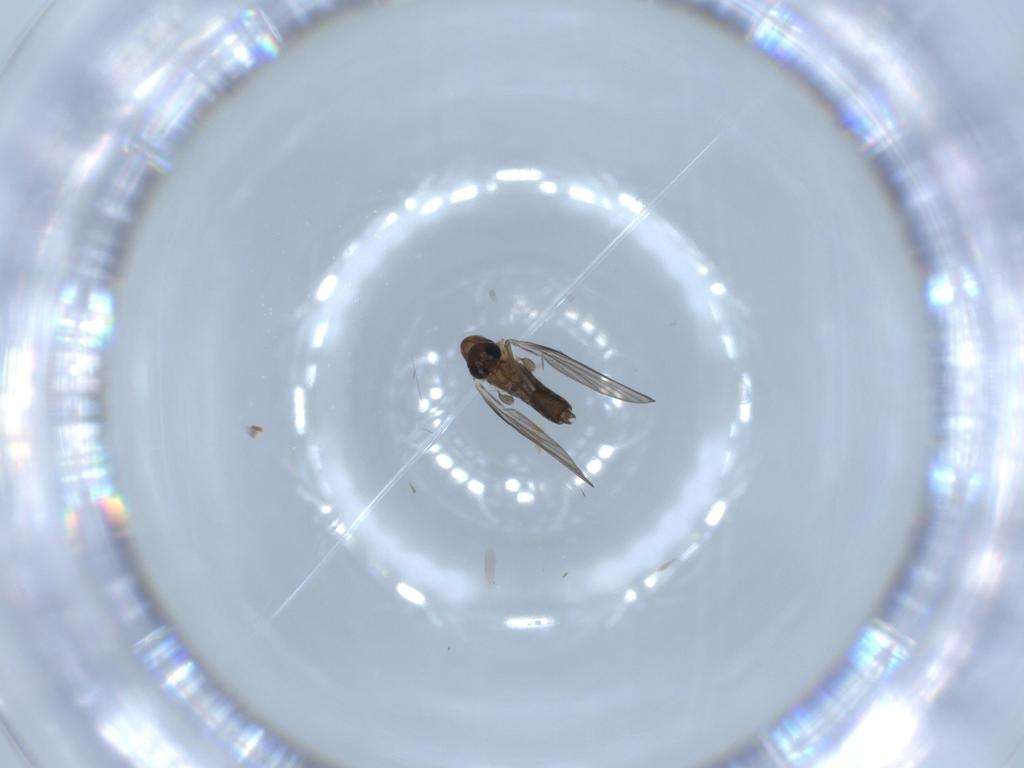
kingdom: Animalia
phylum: Arthropoda
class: Insecta
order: Diptera
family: Psychodidae
